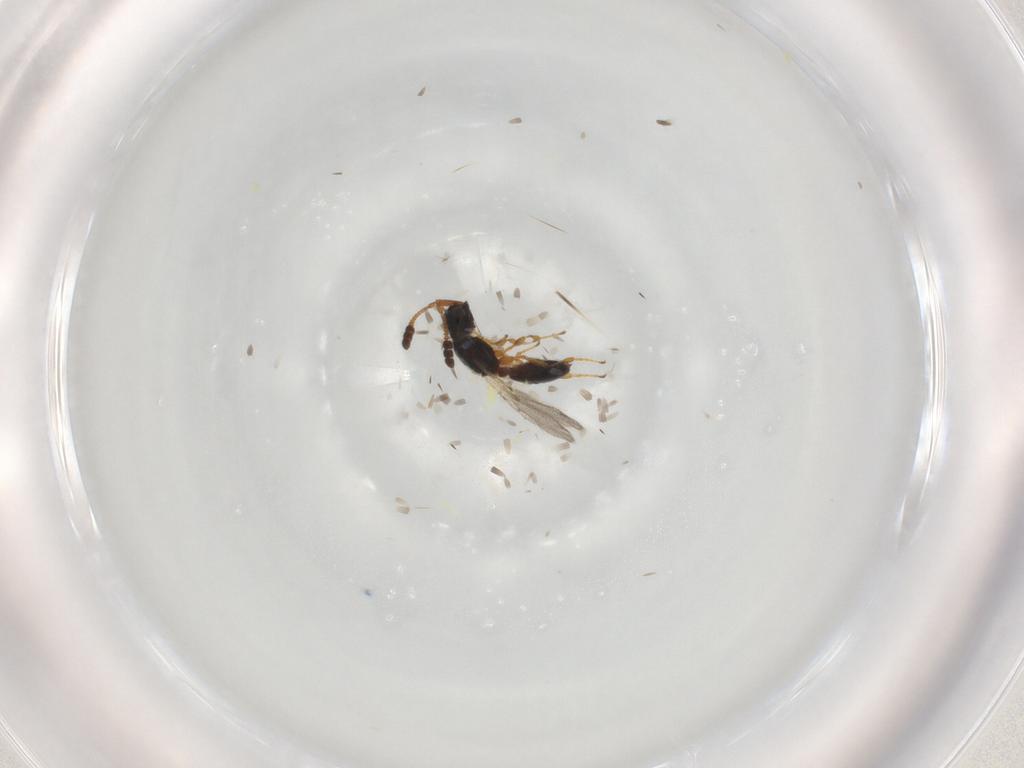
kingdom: Animalia
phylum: Arthropoda
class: Insecta
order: Hymenoptera
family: Diapriidae
